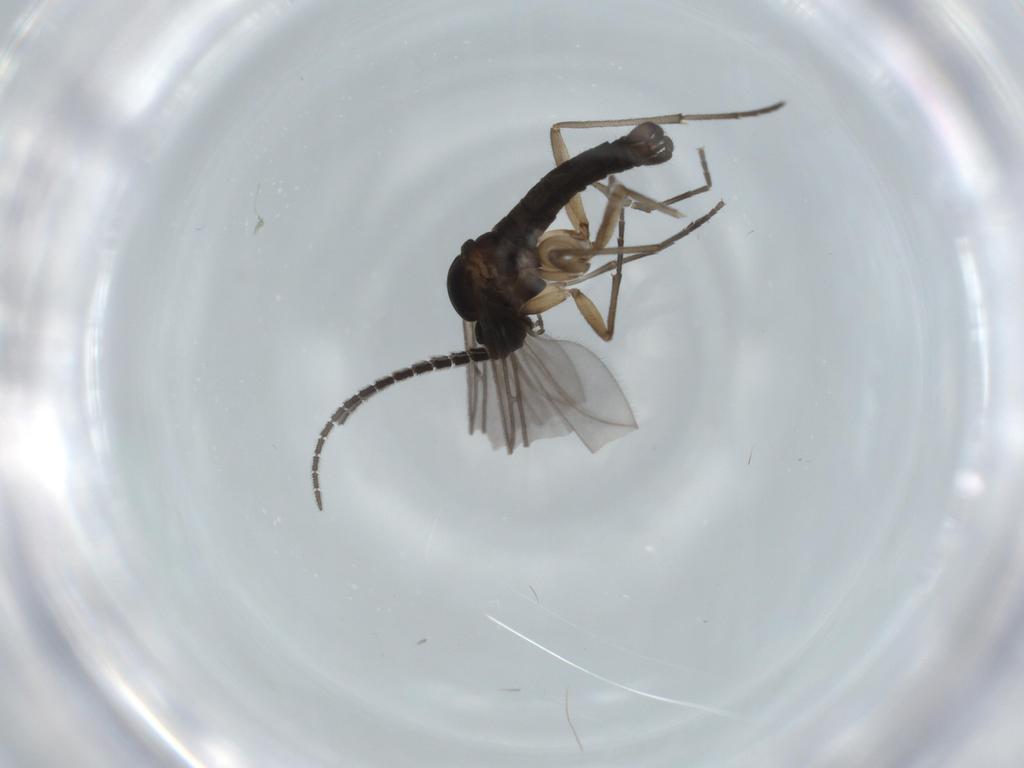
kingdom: Animalia
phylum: Arthropoda
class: Insecta
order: Diptera
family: Sciaridae
